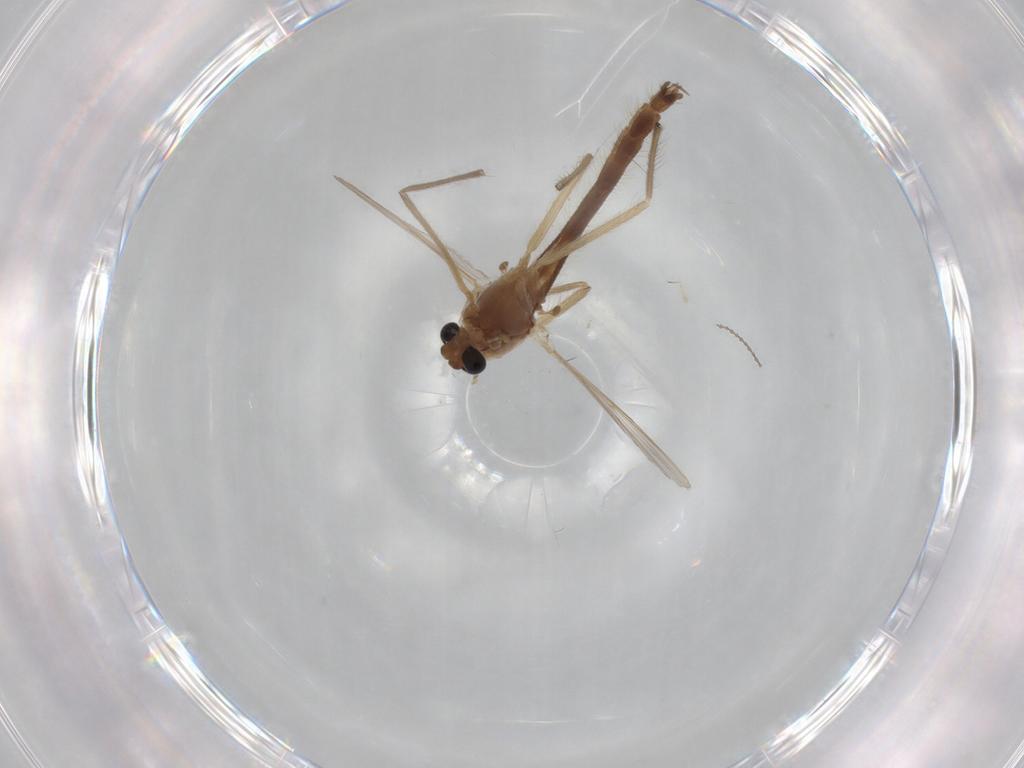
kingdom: Animalia
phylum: Arthropoda
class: Insecta
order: Diptera
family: Chironomidae
